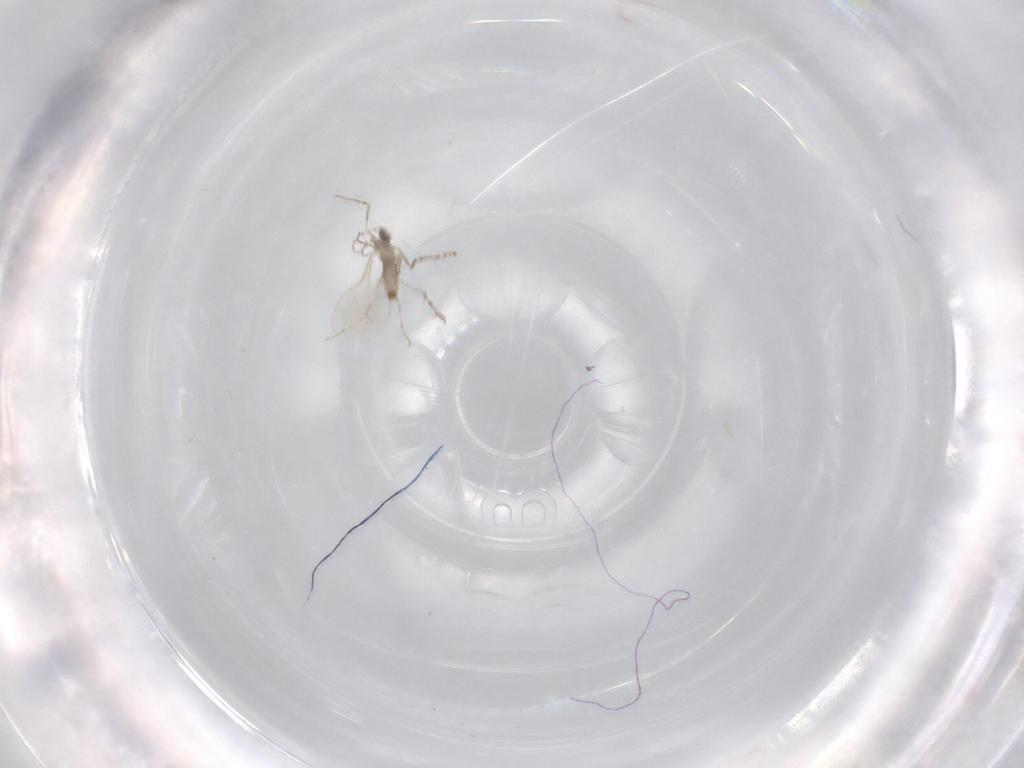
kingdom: Animalia
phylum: Arthropoda
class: Insecta
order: Diptera
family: Cecidomyiidae
